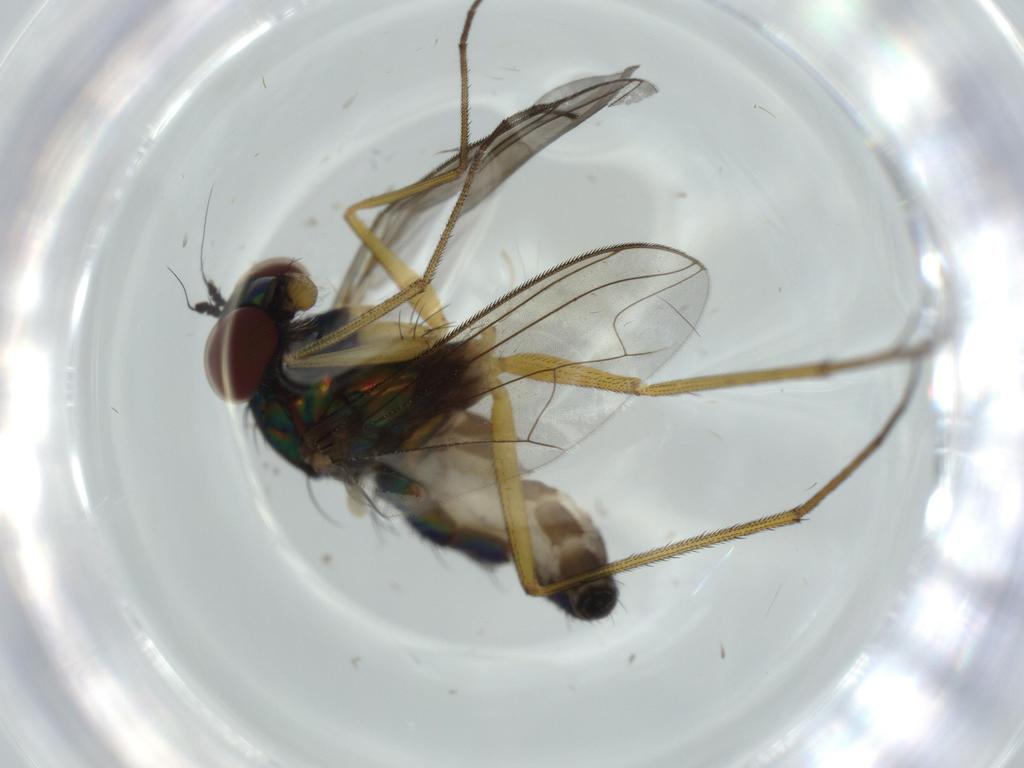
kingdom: Animalia
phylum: Arthropoda
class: Insecta
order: Diptera
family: Dolichopodidae
